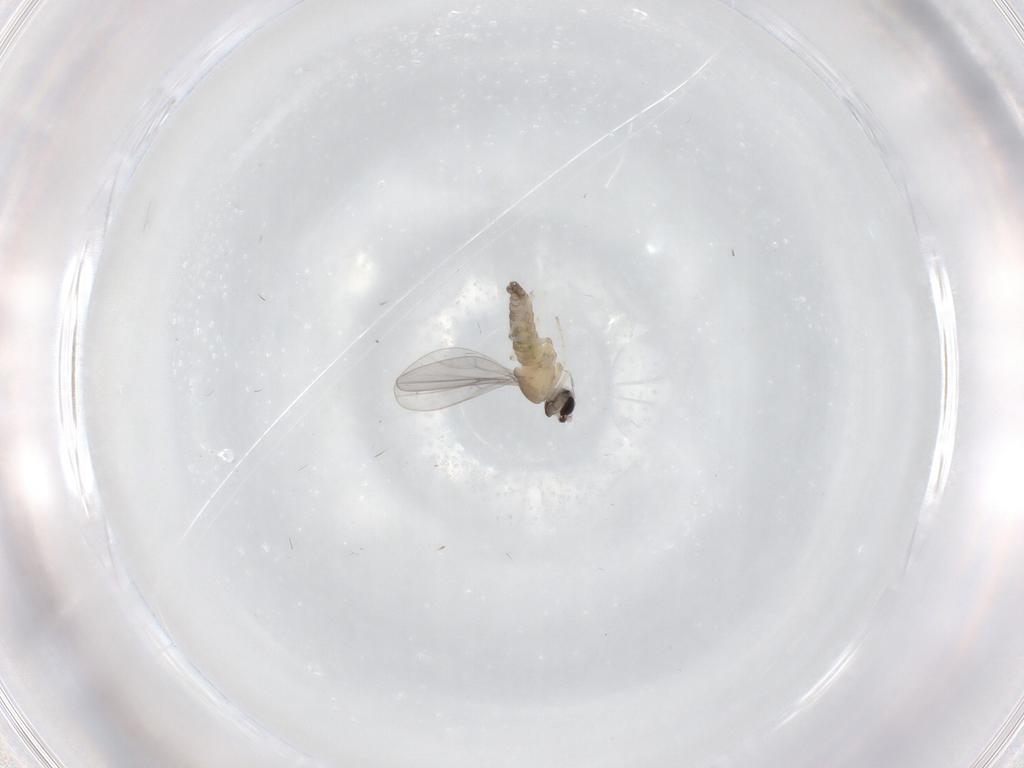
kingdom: Animalia
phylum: Arthropoda
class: Insecta
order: Diptera
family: Cecidomyiidae
